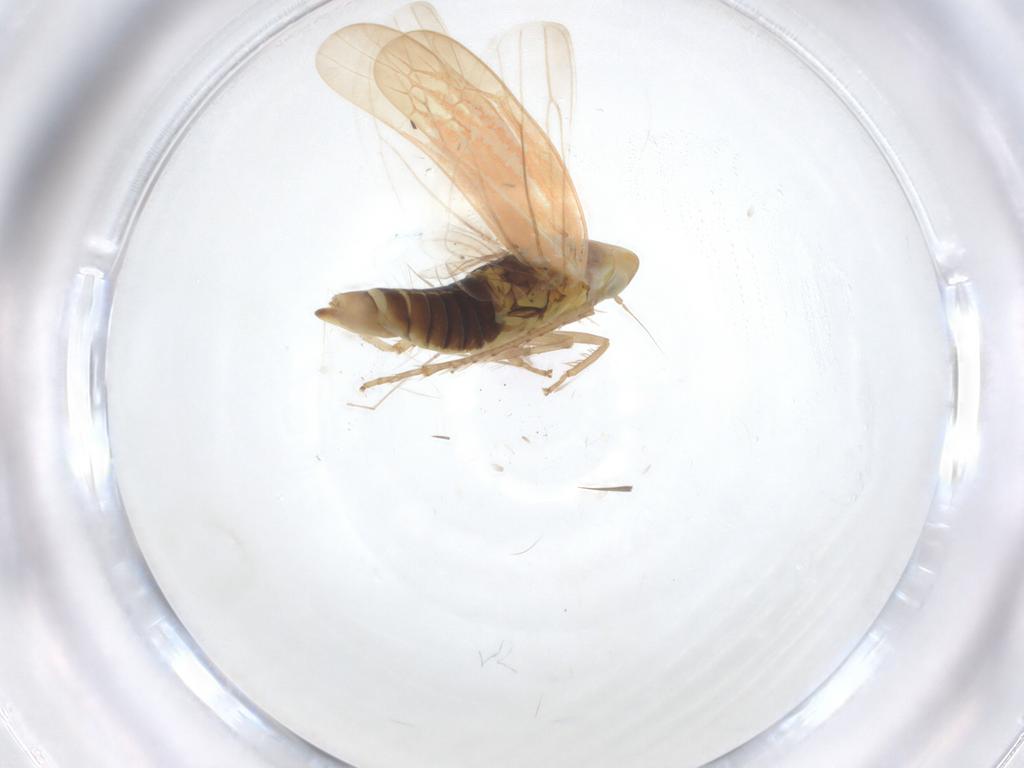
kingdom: Animalia
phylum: Arthropoda
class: Insecta
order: Hemiptera
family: Cicadellidae
